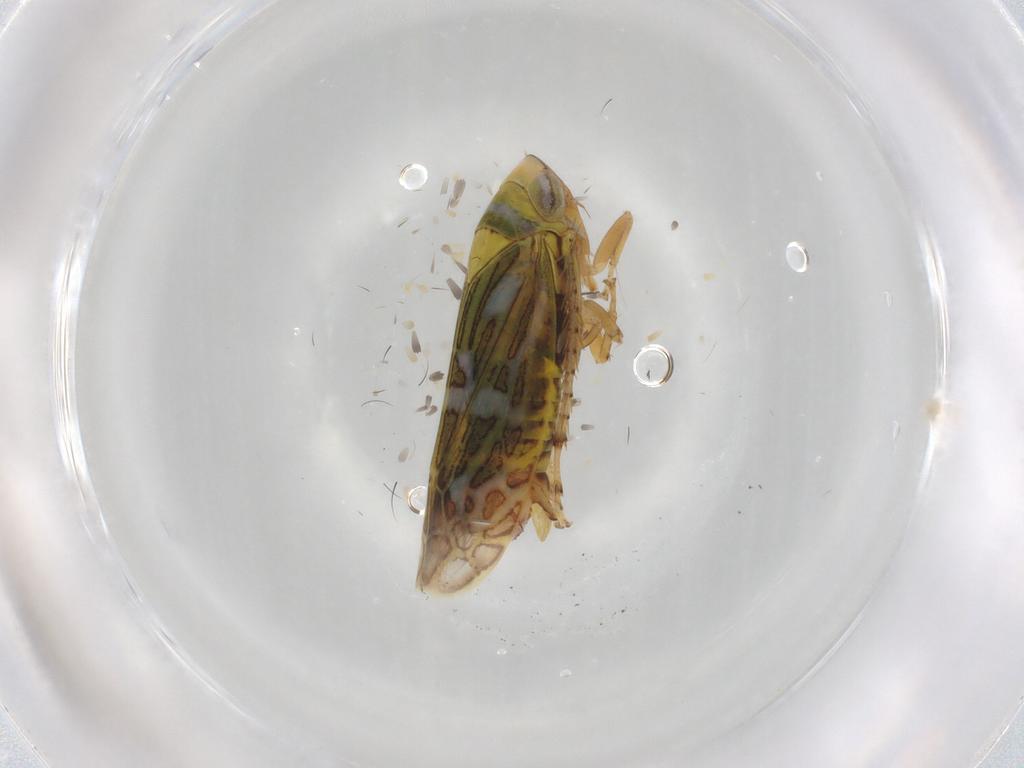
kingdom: Animalia
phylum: Arthropoda
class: Insecta
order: Hemiptera
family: Cicadellidae
